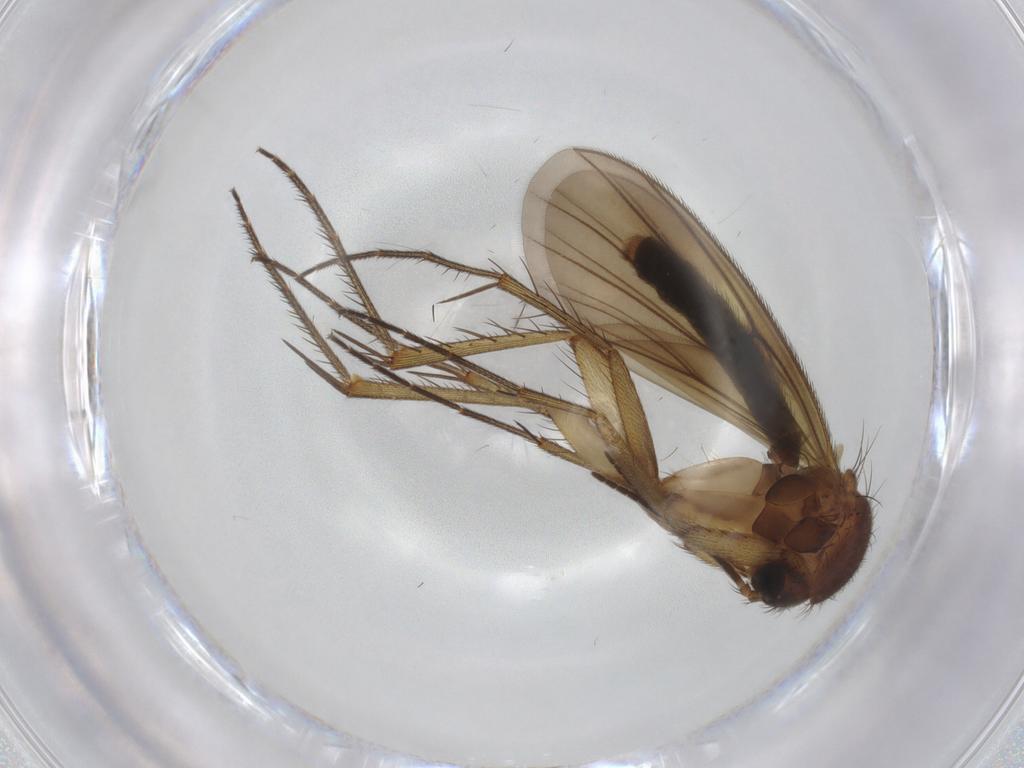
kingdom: Animalia
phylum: Arthropoda
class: Insecta
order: Diptera
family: Mycetophilidae
